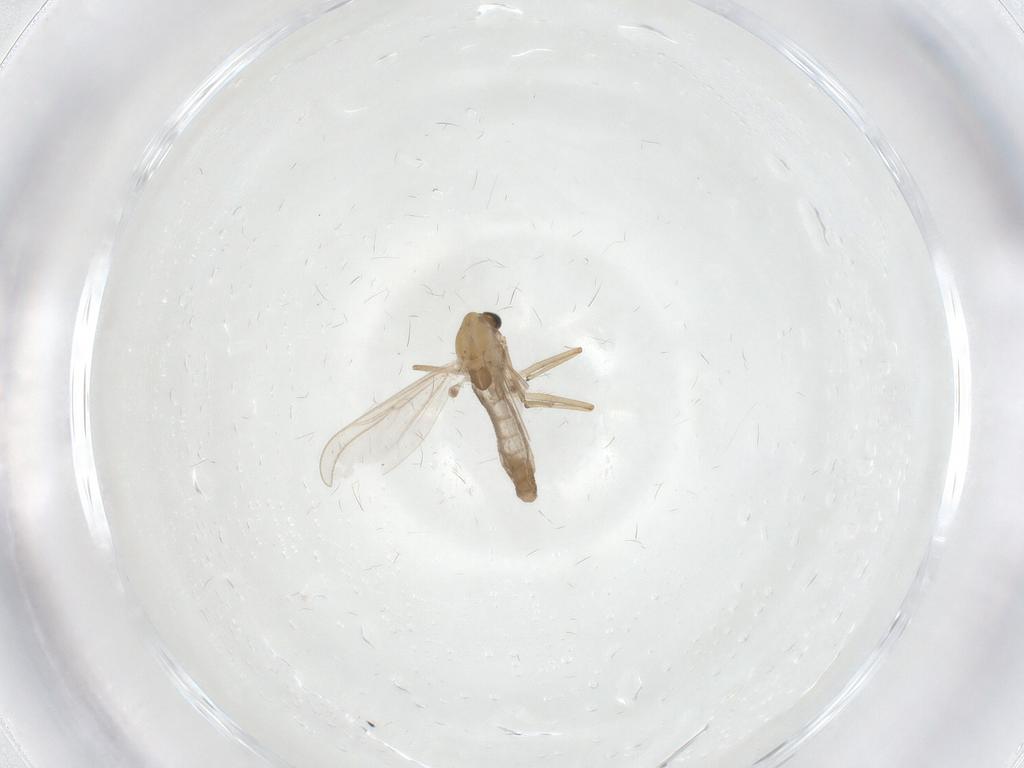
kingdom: Animalia
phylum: Arthropoda
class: Insecta
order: Diptera
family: Chironomidae
